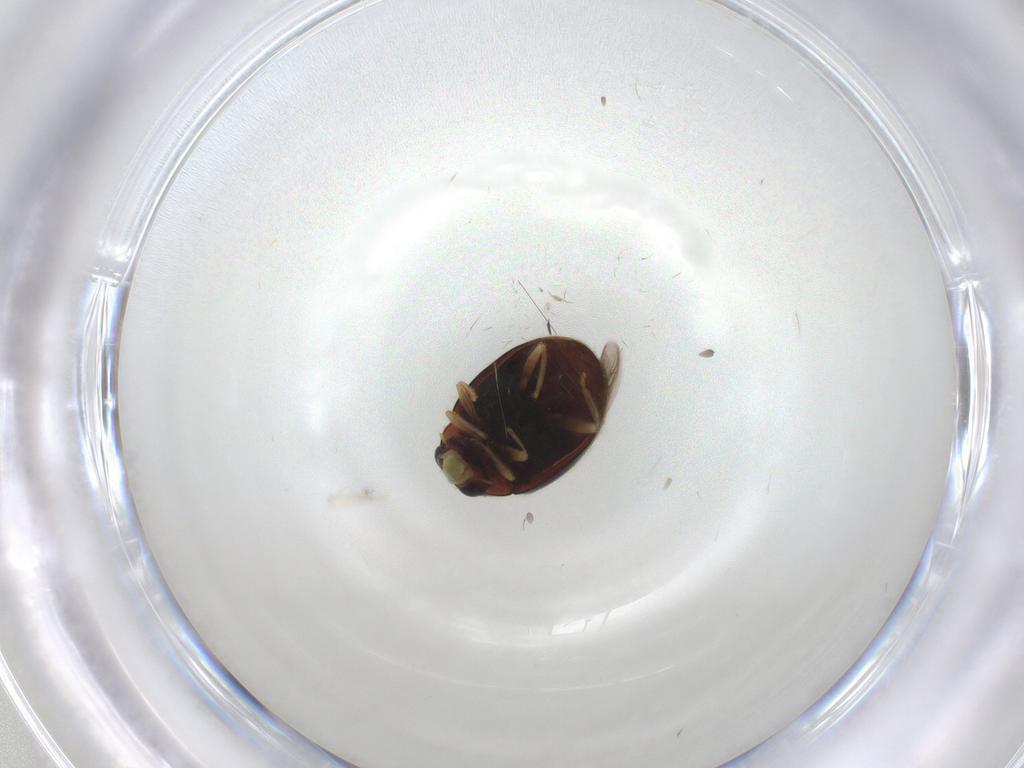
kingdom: Animalia
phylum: Arthropoda
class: Insecta
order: Coleoptera
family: Coccinellidae
